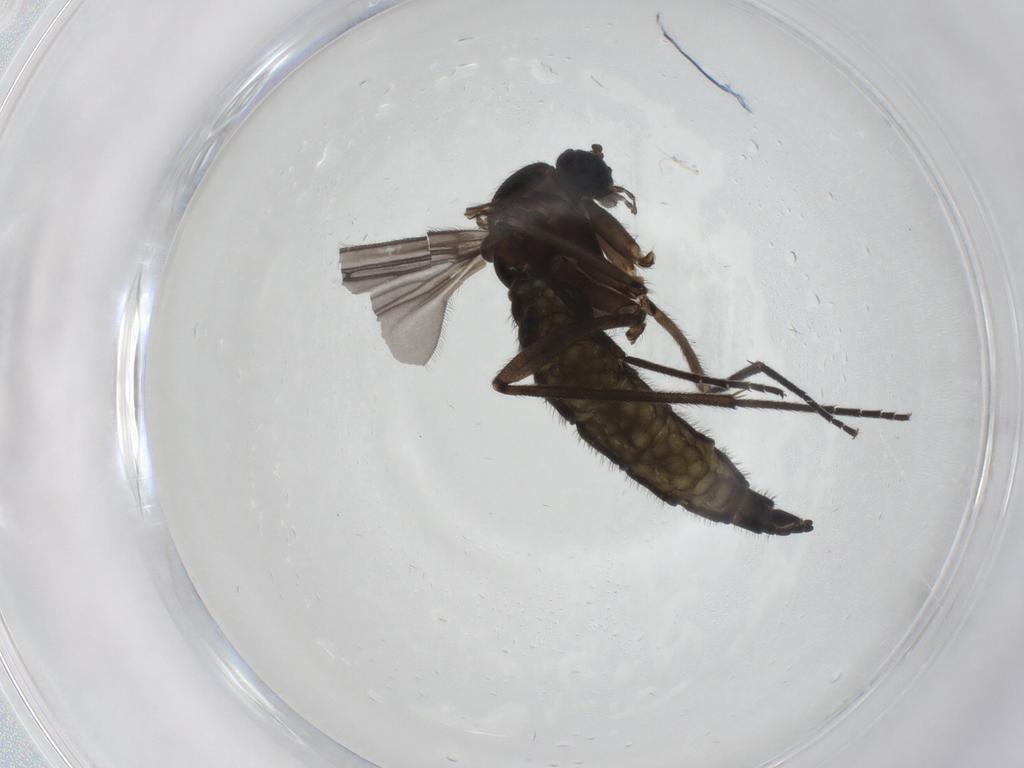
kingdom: Animalia
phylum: Arthropoda
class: Insecta
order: Diptera
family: Sciaridae
